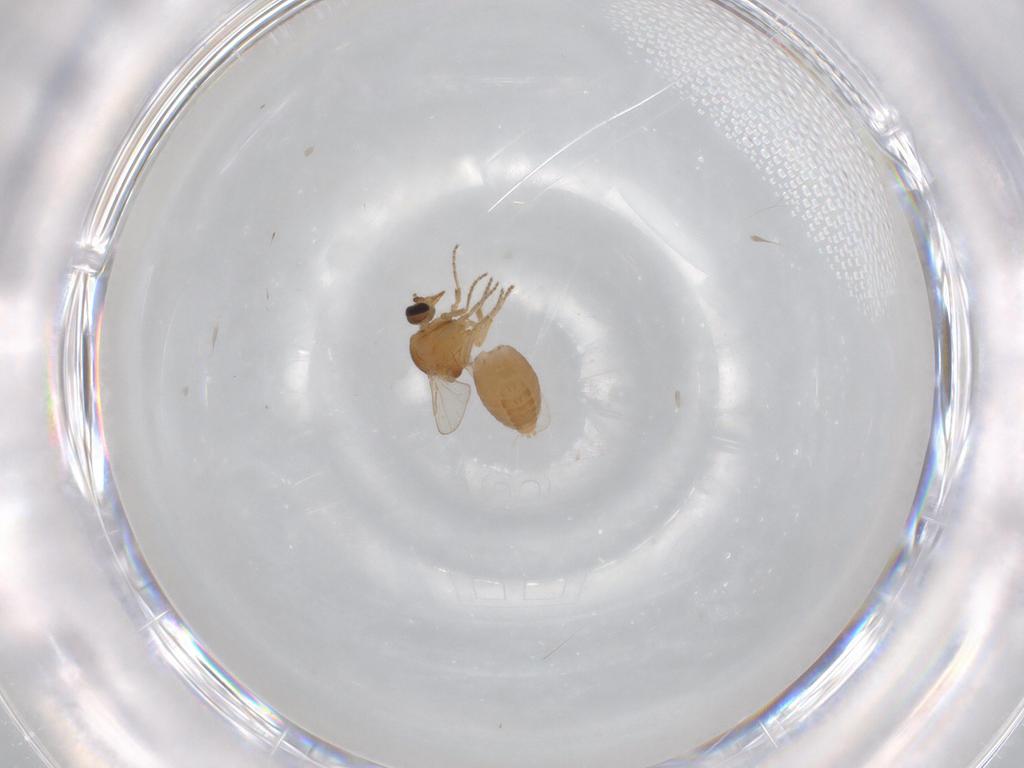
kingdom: Animalia
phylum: Arthropoda
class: Insecta
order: Diptera
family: Ceratopogonidae
